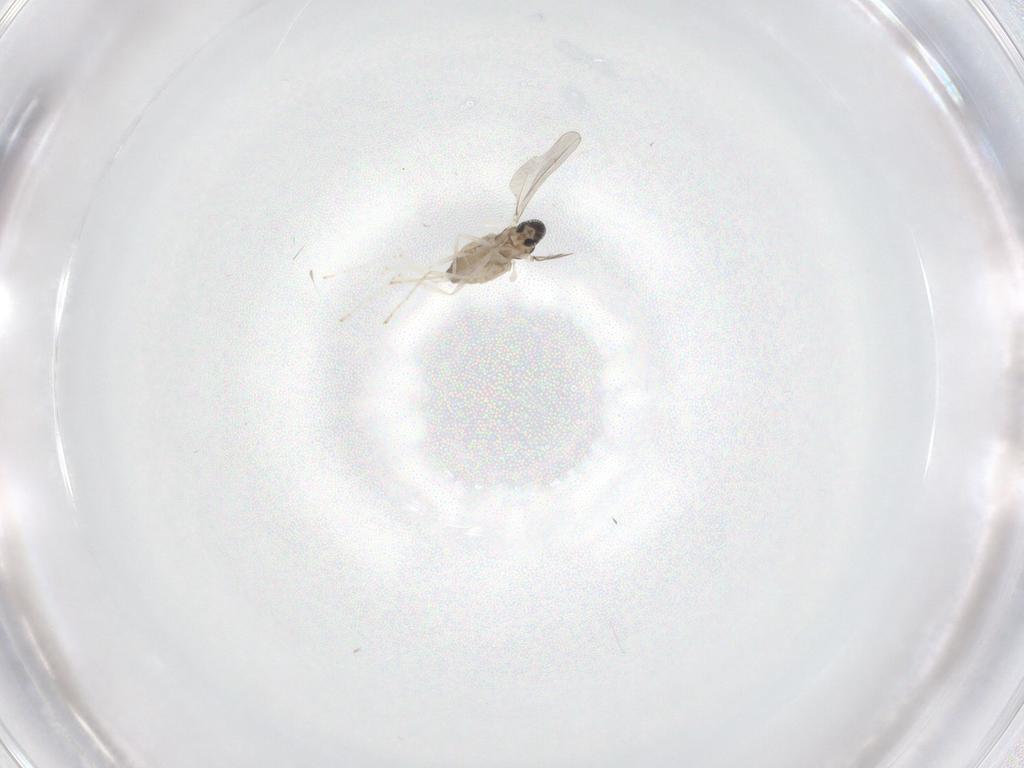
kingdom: Animalia
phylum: Arthropoda
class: Insecta
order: Diptera
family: Cecidomyiidae
